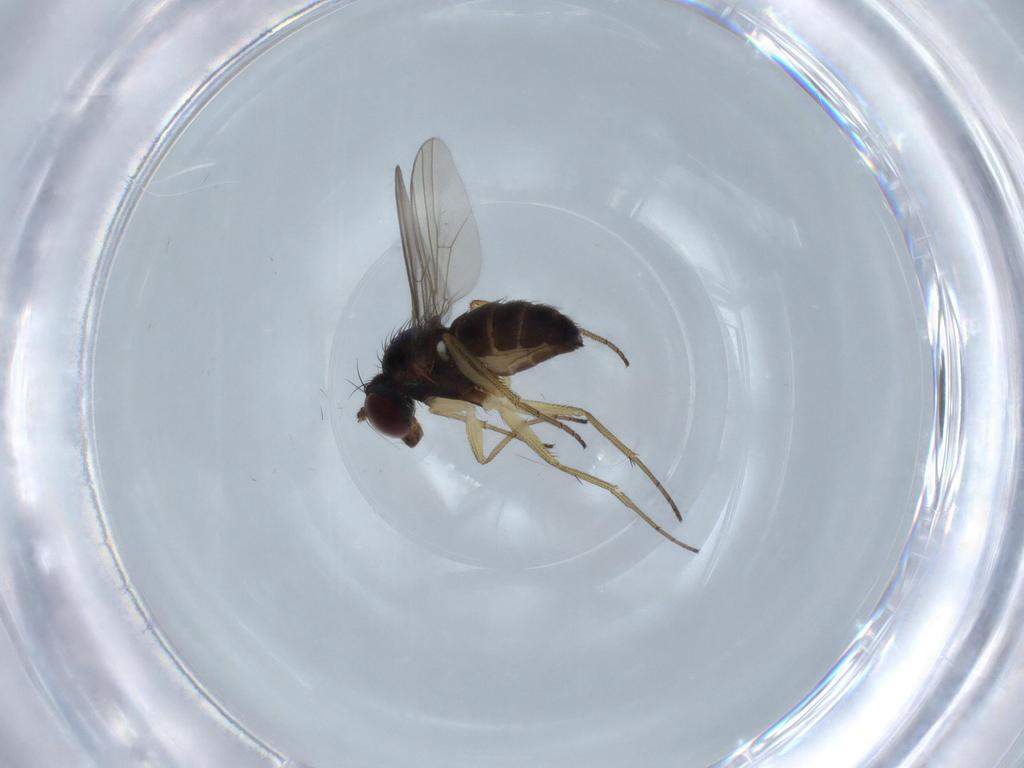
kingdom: Animalia
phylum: Arthropoda
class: Insecta
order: Diptera
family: Dolichopodidae
